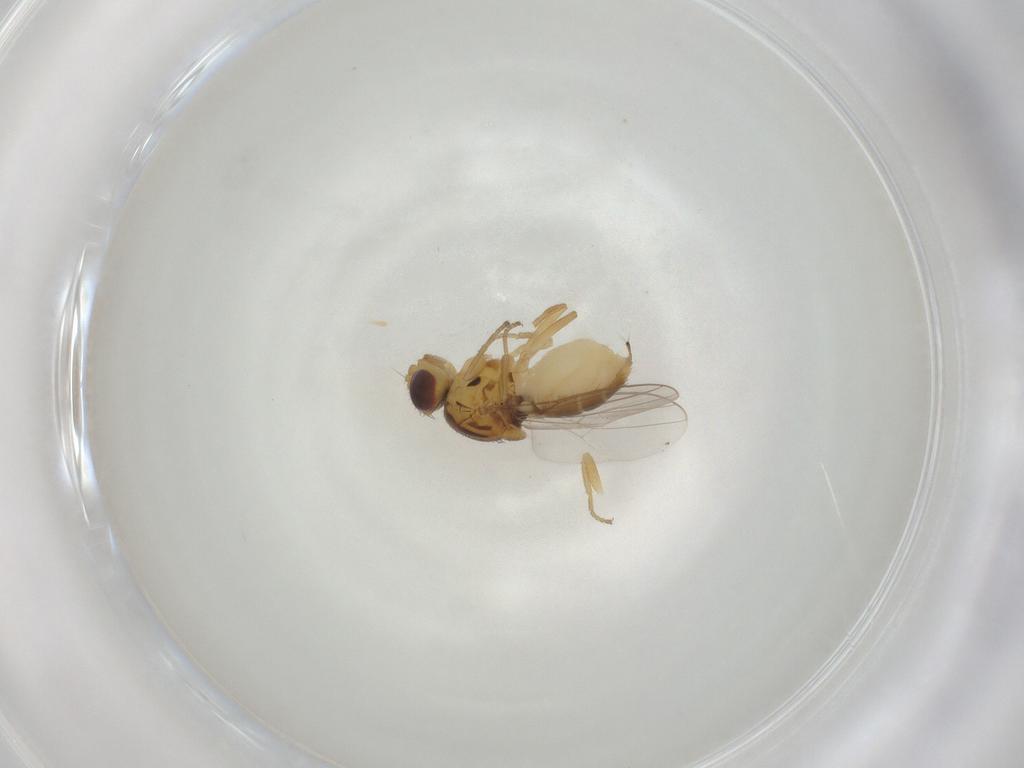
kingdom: Animalia
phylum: Arthropoda
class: Insecta
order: Diptera
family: Chloropidae
